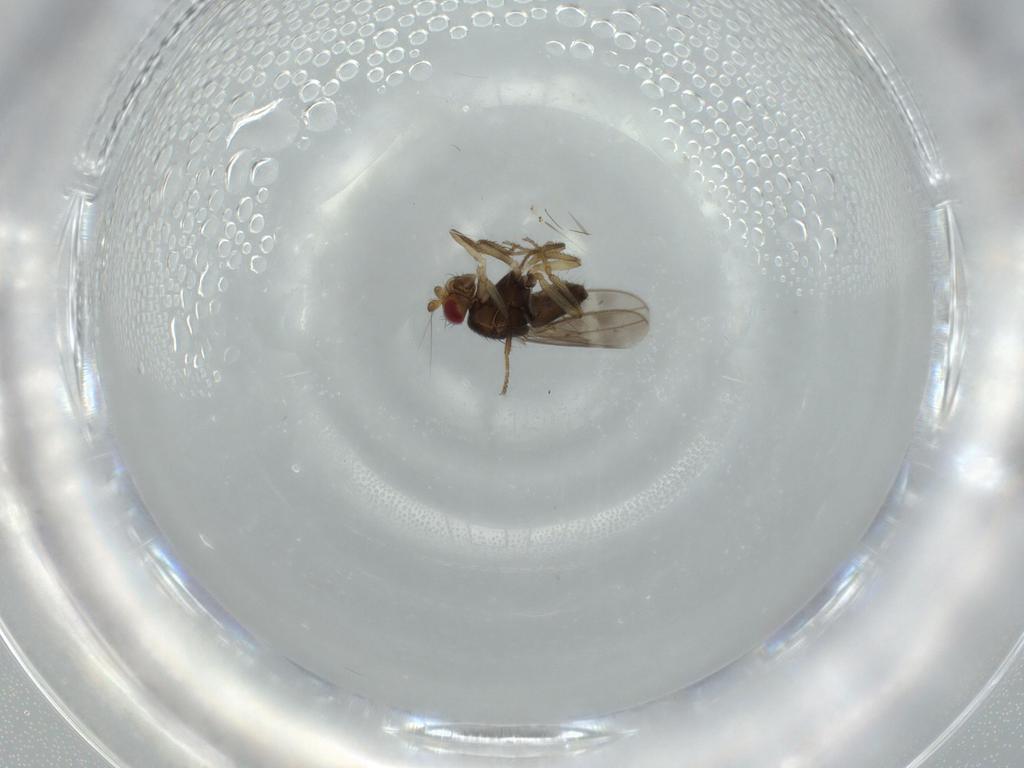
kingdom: Animalia
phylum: Arthropoda
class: Insecta
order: Diptera
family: Sphaeroceridae
